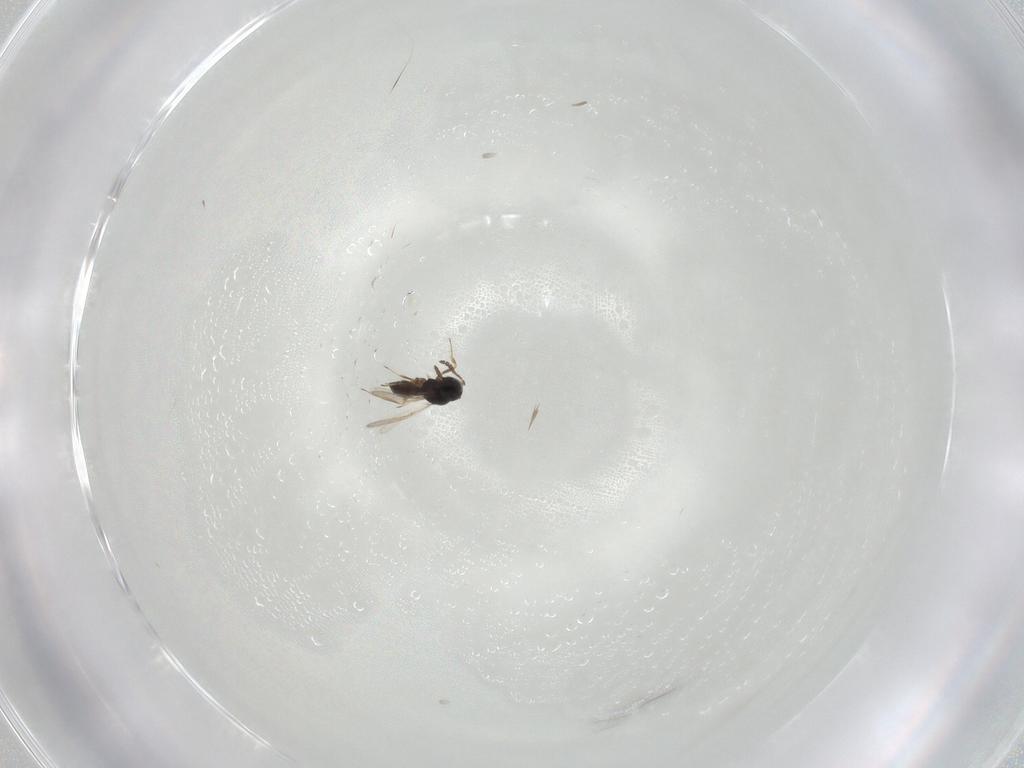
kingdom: Animalia
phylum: Arthropoda
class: Insecta
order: Hymenoptera
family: Scelionidae
